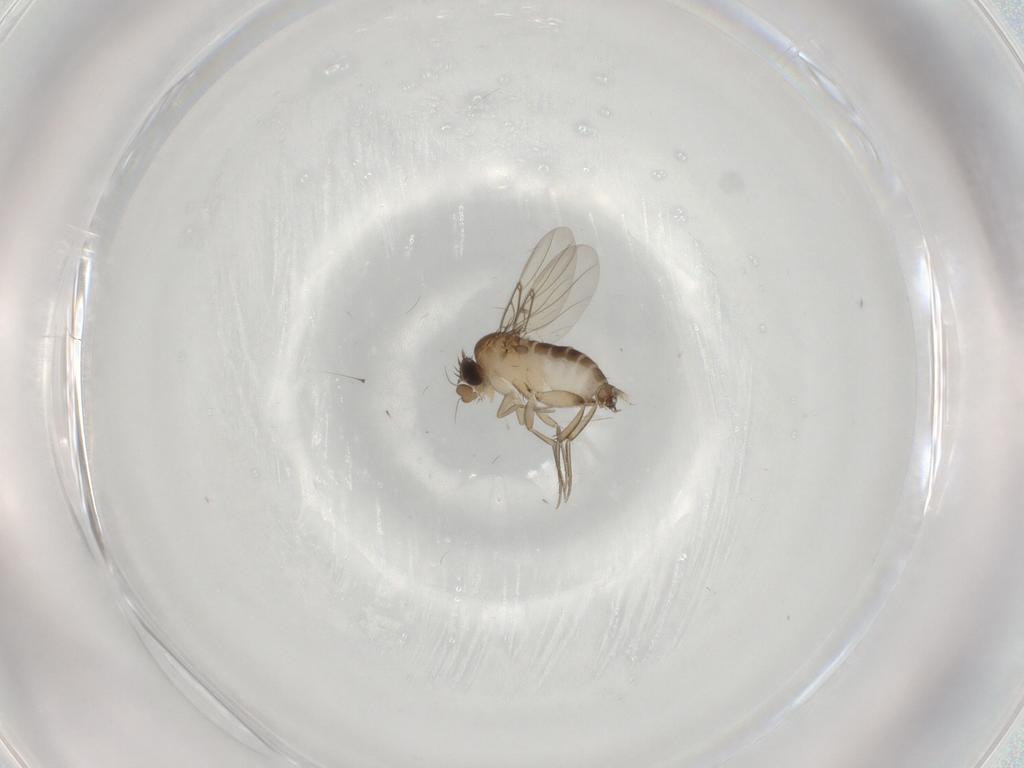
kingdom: Animalia
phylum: Arthropoda
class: Insecta
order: Diptera
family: Phoridae
